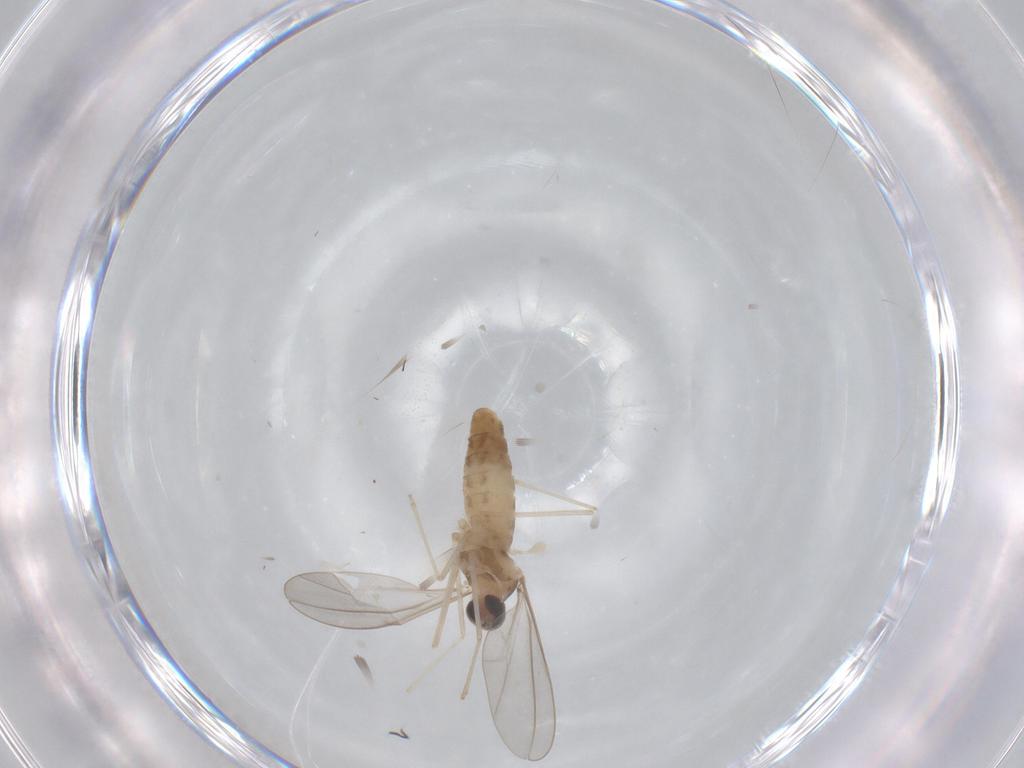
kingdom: Animalia
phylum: Arthropoda
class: Insecta
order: Diptera
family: Cecidomyiidae
